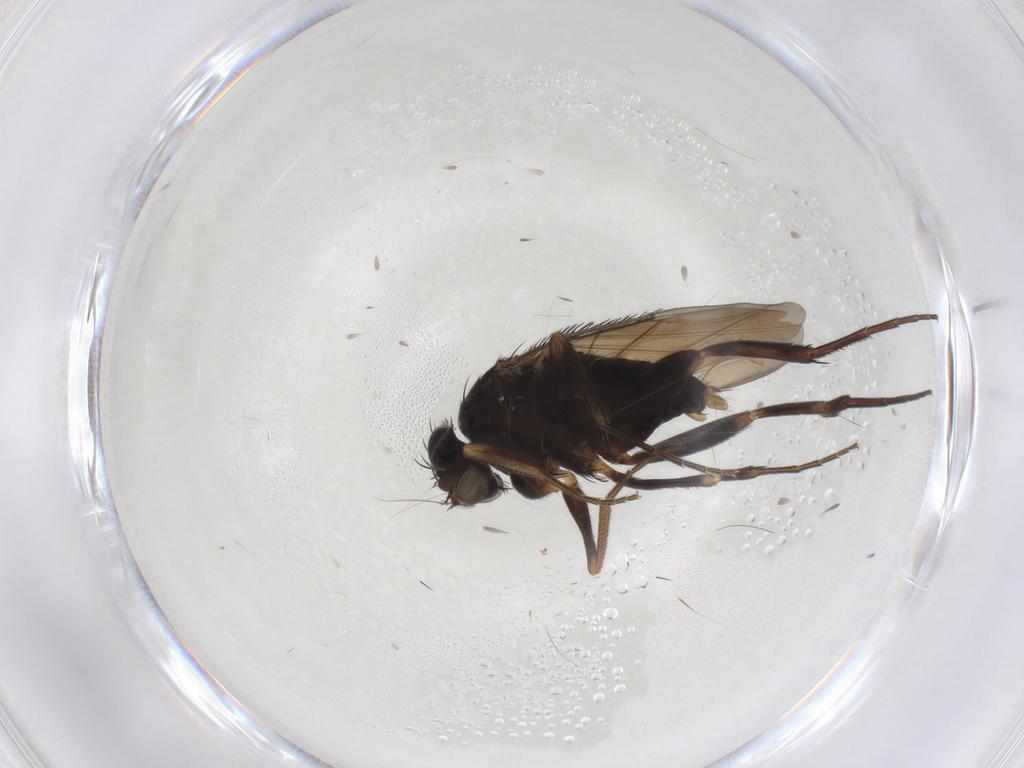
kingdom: Animalia
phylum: Arthropoda
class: Insecta
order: Diptera
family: Phoridae
